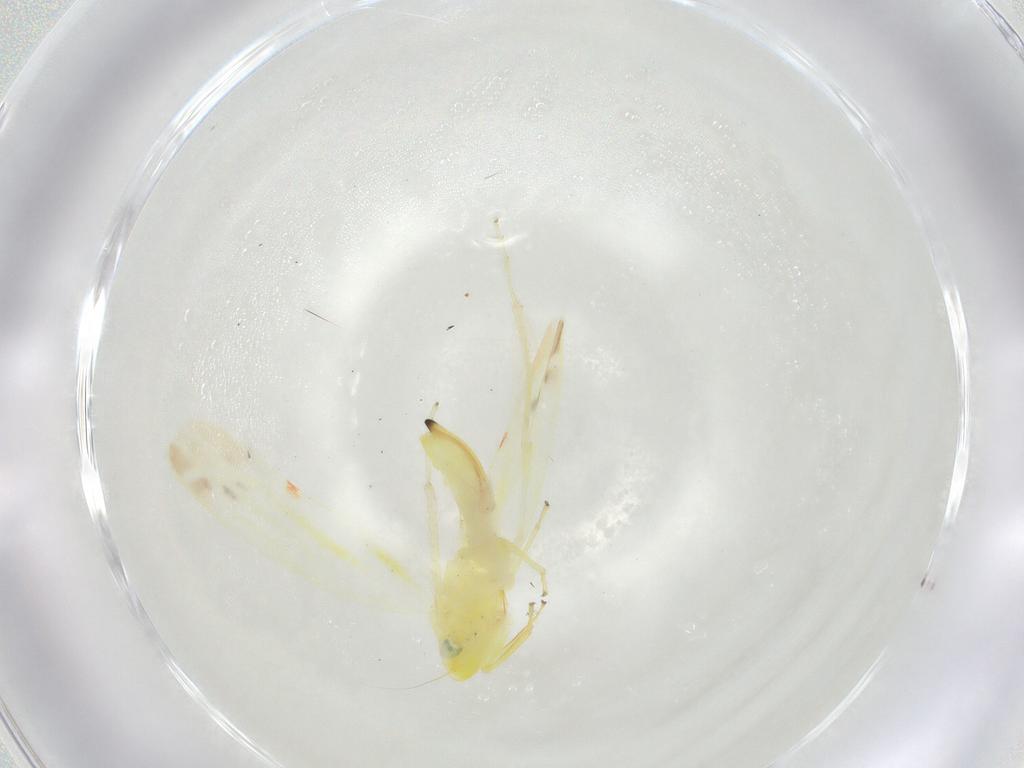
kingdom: Animalia
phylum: Arthropoda
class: Insecta
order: Hemiptera
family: Cicadellidae
